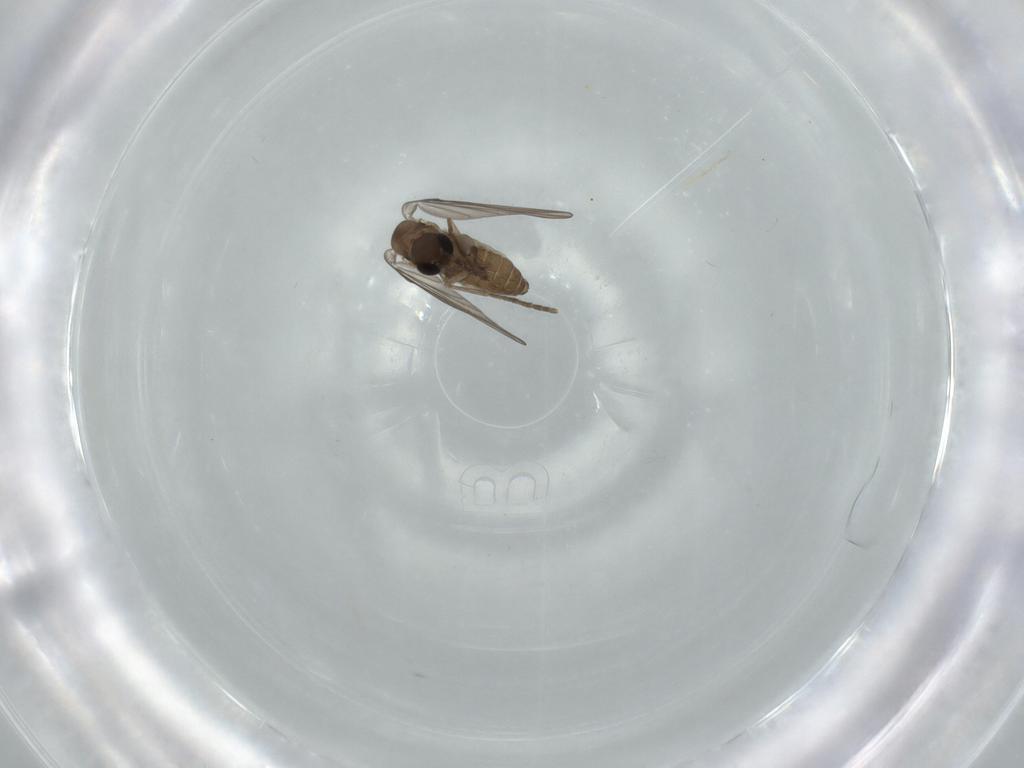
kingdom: Animalia
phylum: Arthropoda
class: Insecta
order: Diptera
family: Psychodidae
